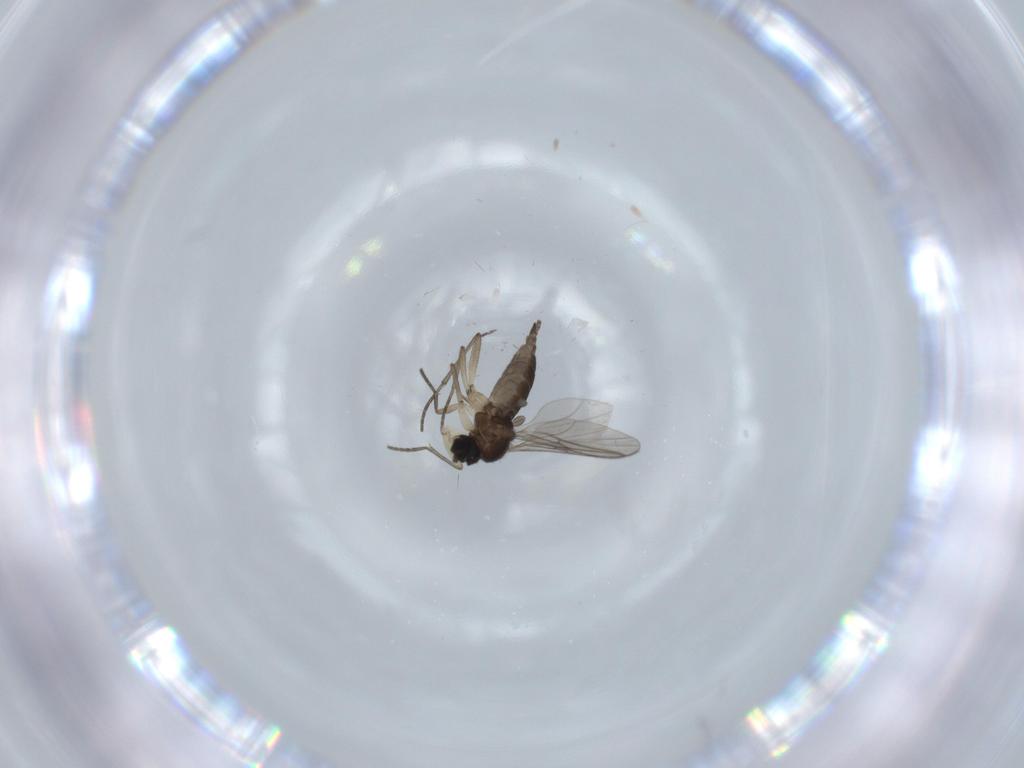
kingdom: Animalia
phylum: Arthropoda
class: Insecta
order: Diptera
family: Sciaridae
